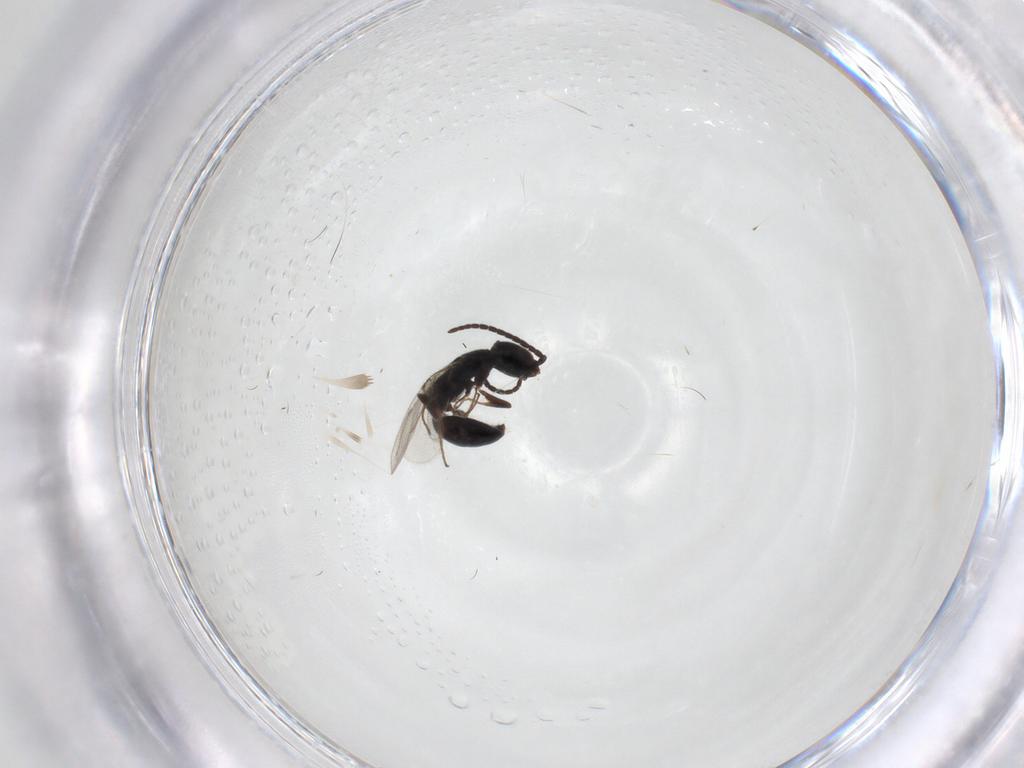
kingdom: Animalia
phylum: Arthropoda
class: Insecta
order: Hymenoptera
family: Bethylidae
